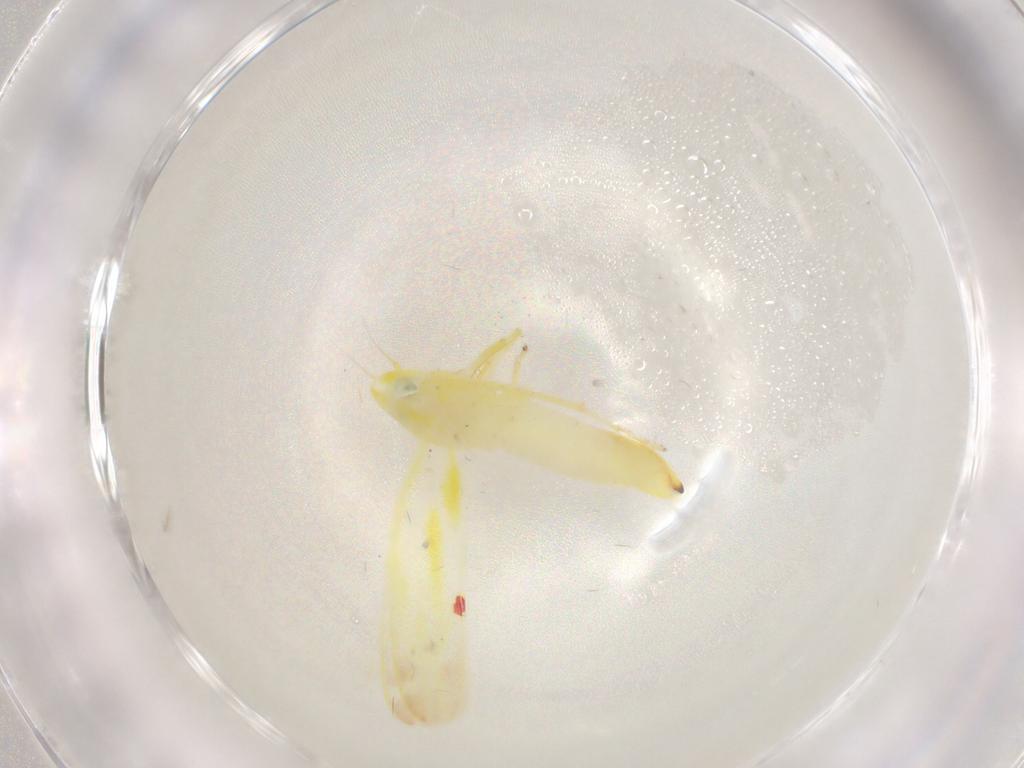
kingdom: Animalia
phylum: Arthropoda
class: Insecta
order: Hemiptera
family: Cicadellidae
